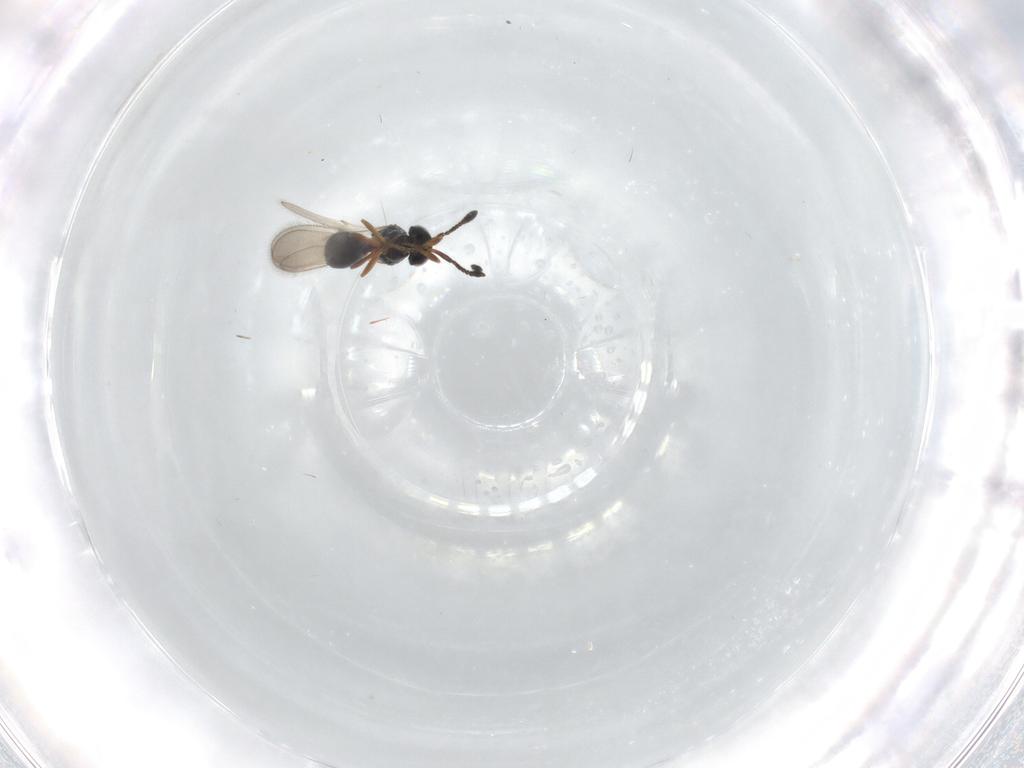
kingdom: Animalia
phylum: Arthropoda
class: Insecta
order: Hymenoptera
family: Scelionidae
